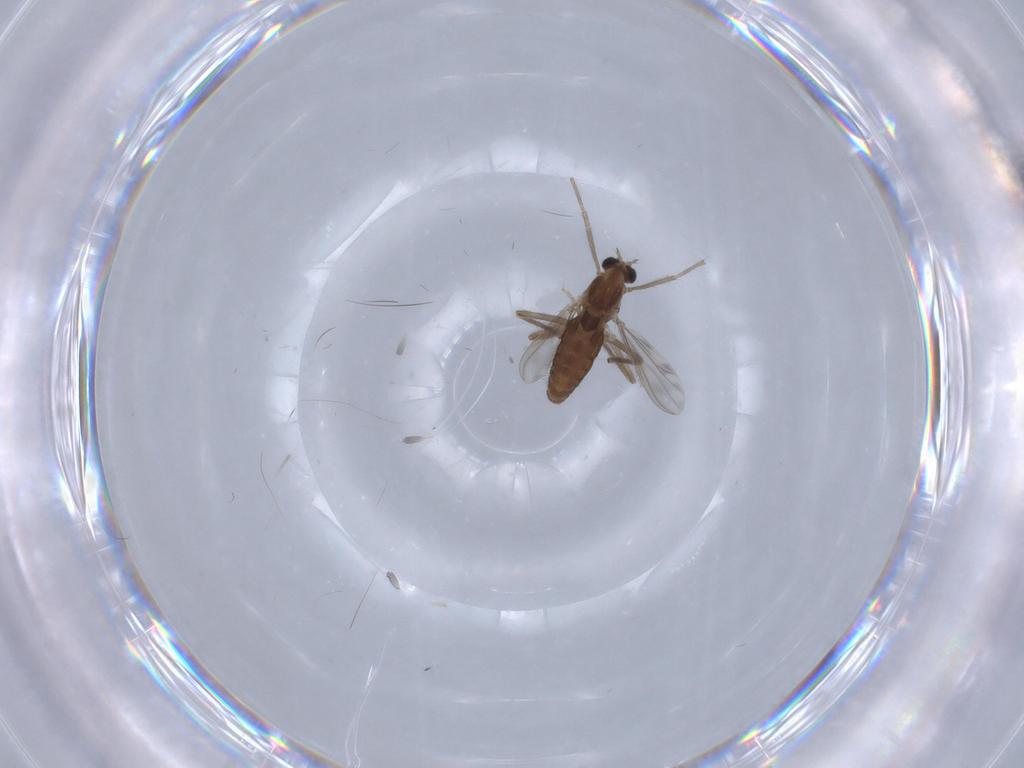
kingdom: Animalia
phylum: Arthropoda
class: Insecta
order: Diptera
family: Chironomidae
